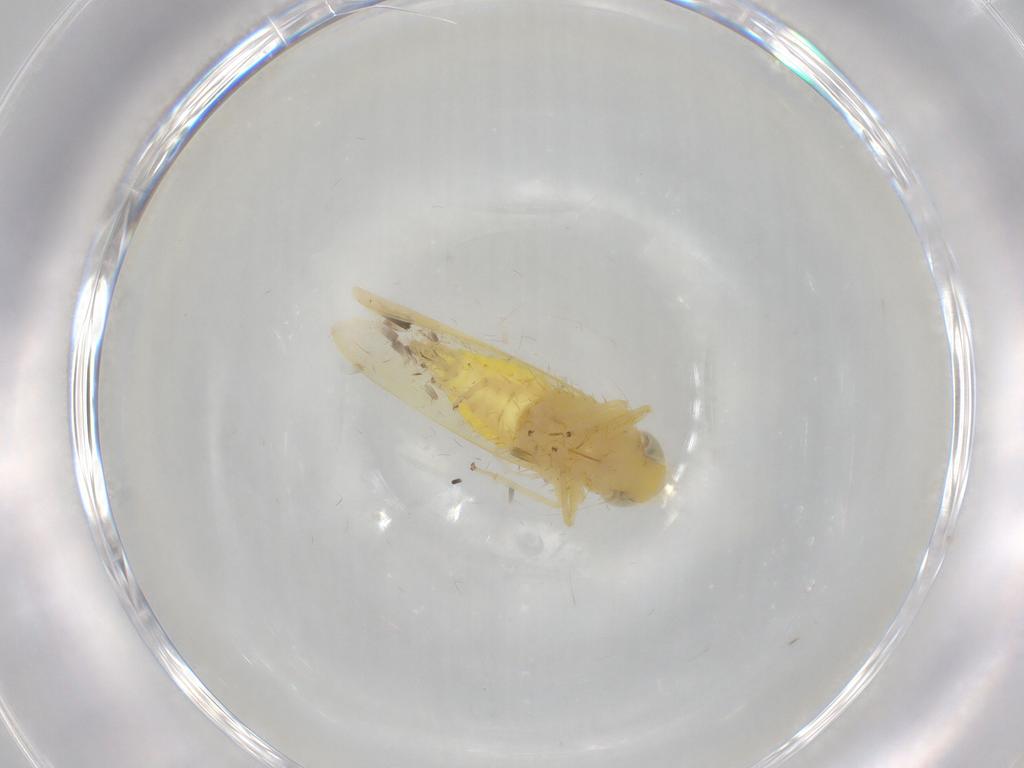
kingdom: Animalia
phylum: Arthropoda
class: Insecta
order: Hemiptera
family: Cicadellidae
